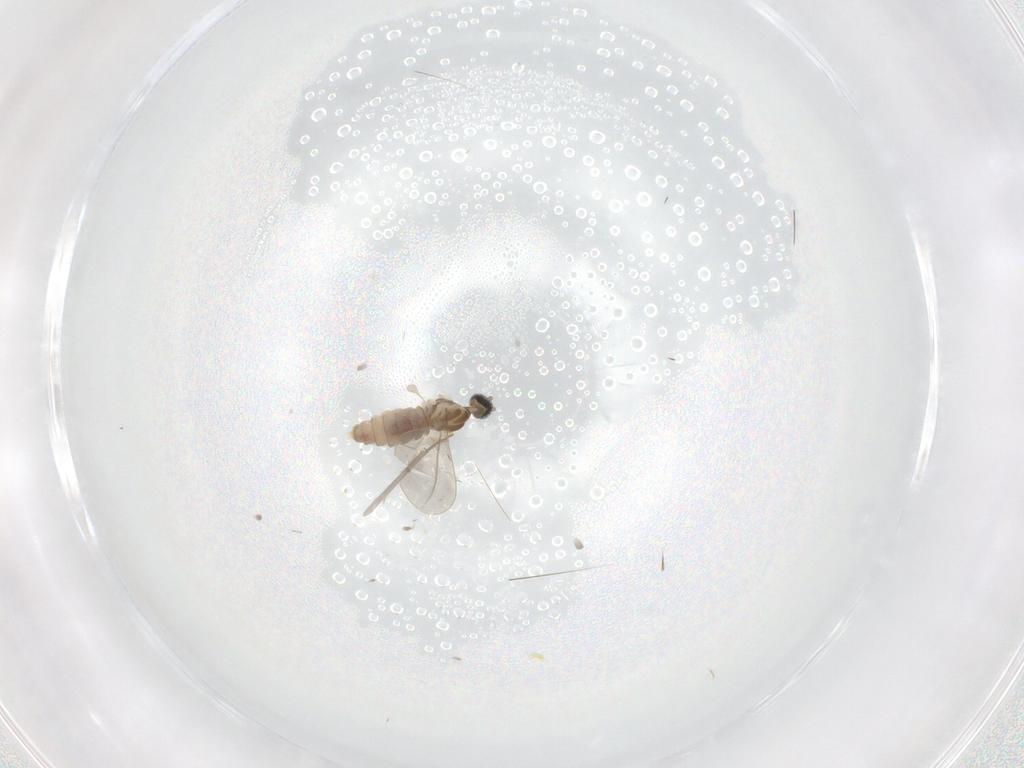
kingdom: Animalia
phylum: Arthropoda
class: Insecta
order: Diptera
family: Cecidomyiidae
